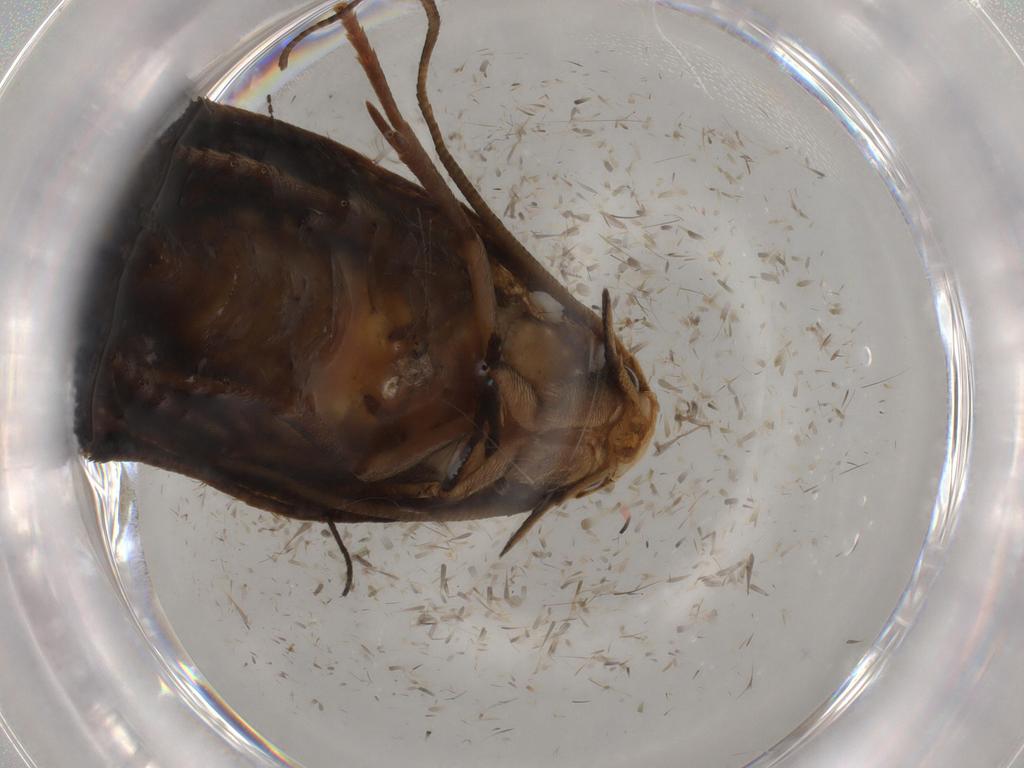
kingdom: Animalia
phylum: Arthropoda
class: Insecta
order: Lepidoptera
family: Tineidae
